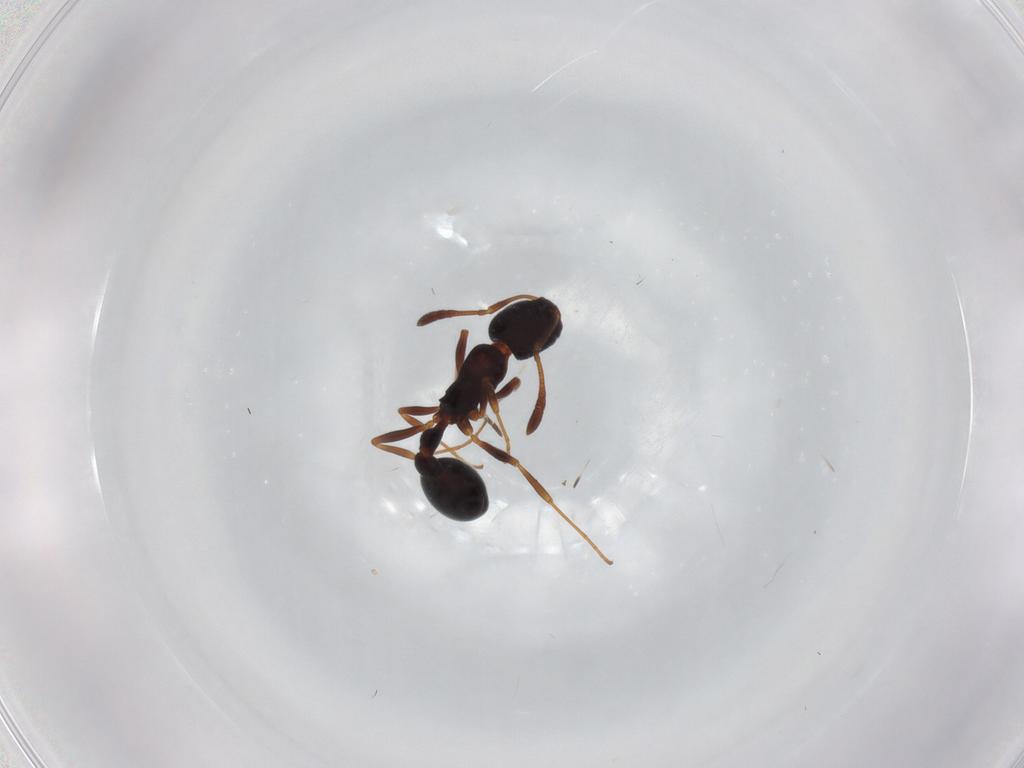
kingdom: Animalia
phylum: Arthropoda
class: Insecta
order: Hymenoptera
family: Formicidae
